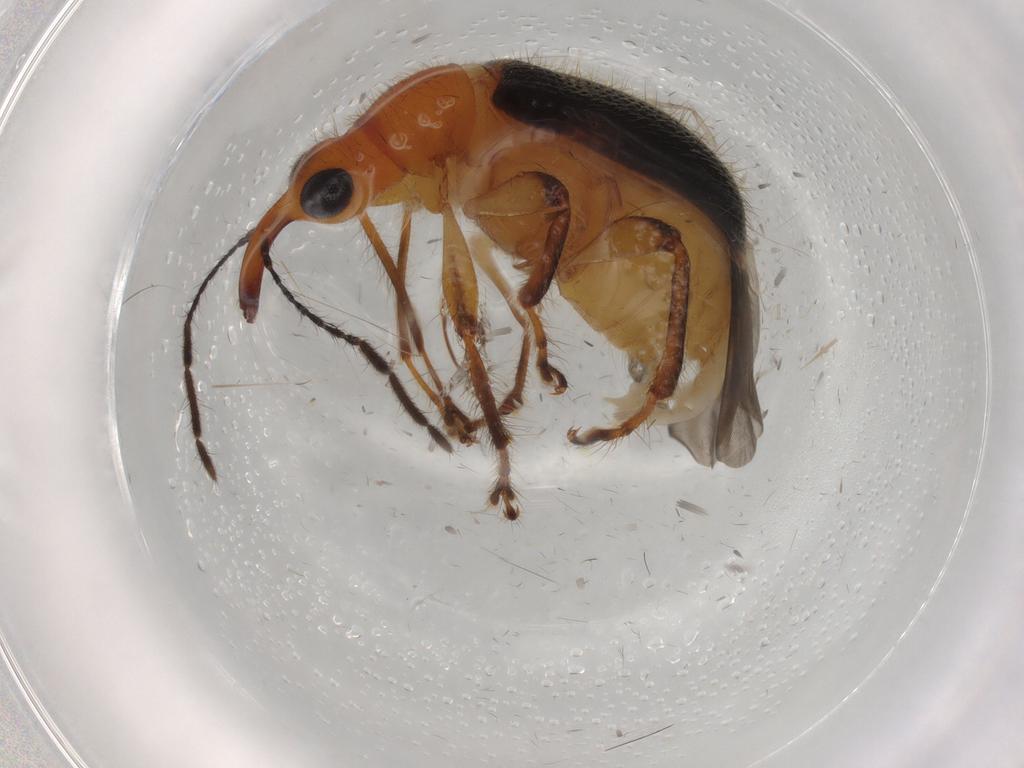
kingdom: Animalia
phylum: Arthropoda
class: Insecta
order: Coleoptera
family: Attelabidae
